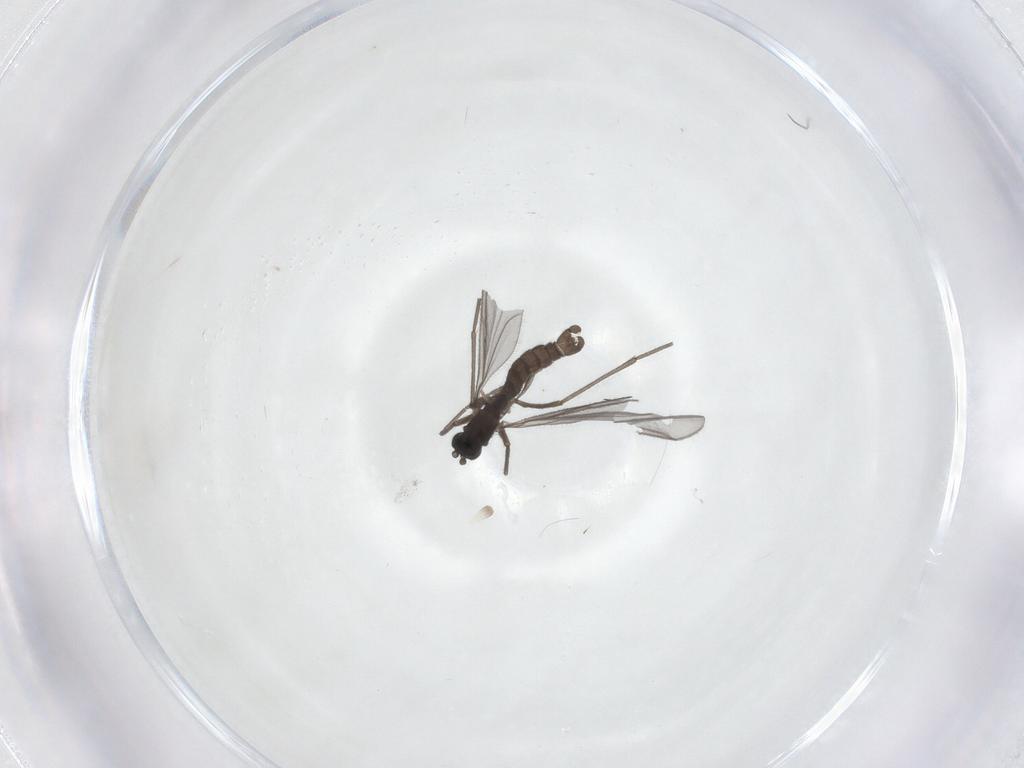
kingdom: Animalia
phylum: Arthropoda
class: Insecta
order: Diptera
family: Sciaridae
